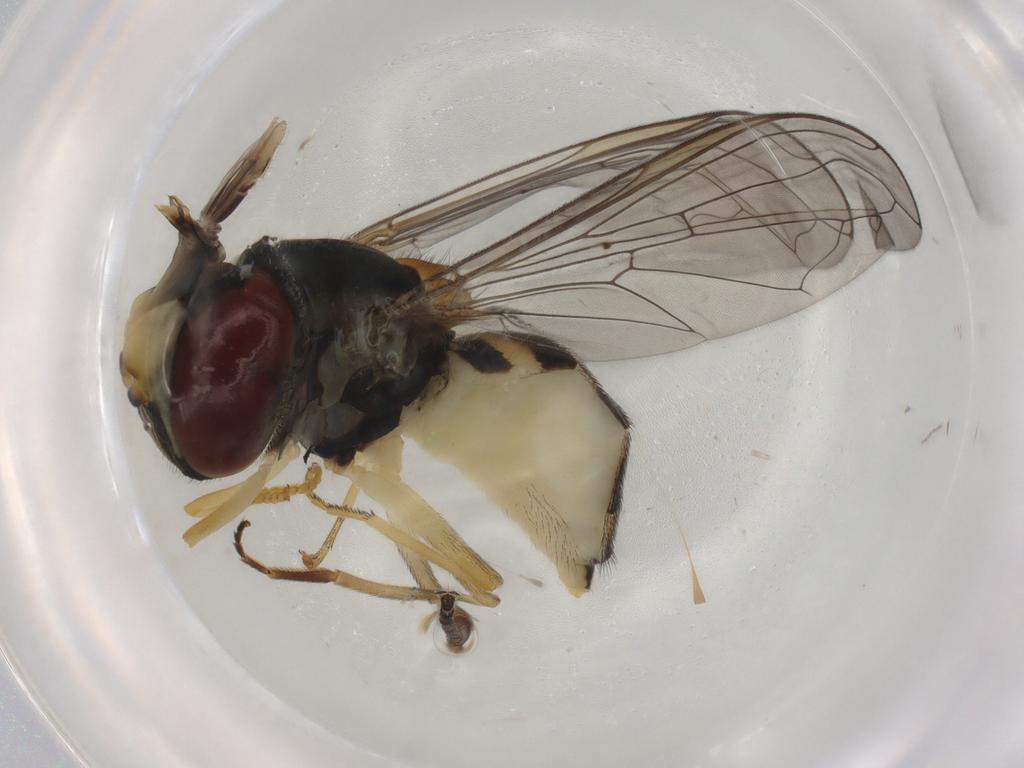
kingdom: Animalia
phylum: Arthropoda
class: Insecta
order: Diptera
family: Syrphidae
